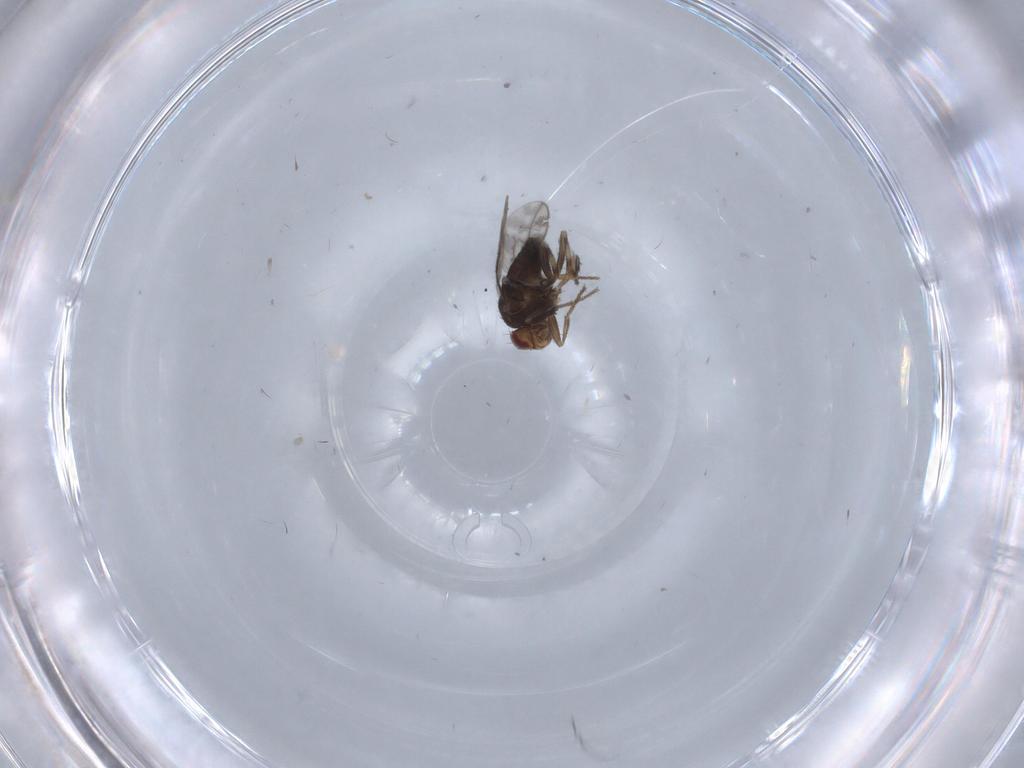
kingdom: Animalia
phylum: Arthropoda
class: Insecta
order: Diptera
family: Sphaeroceridae
